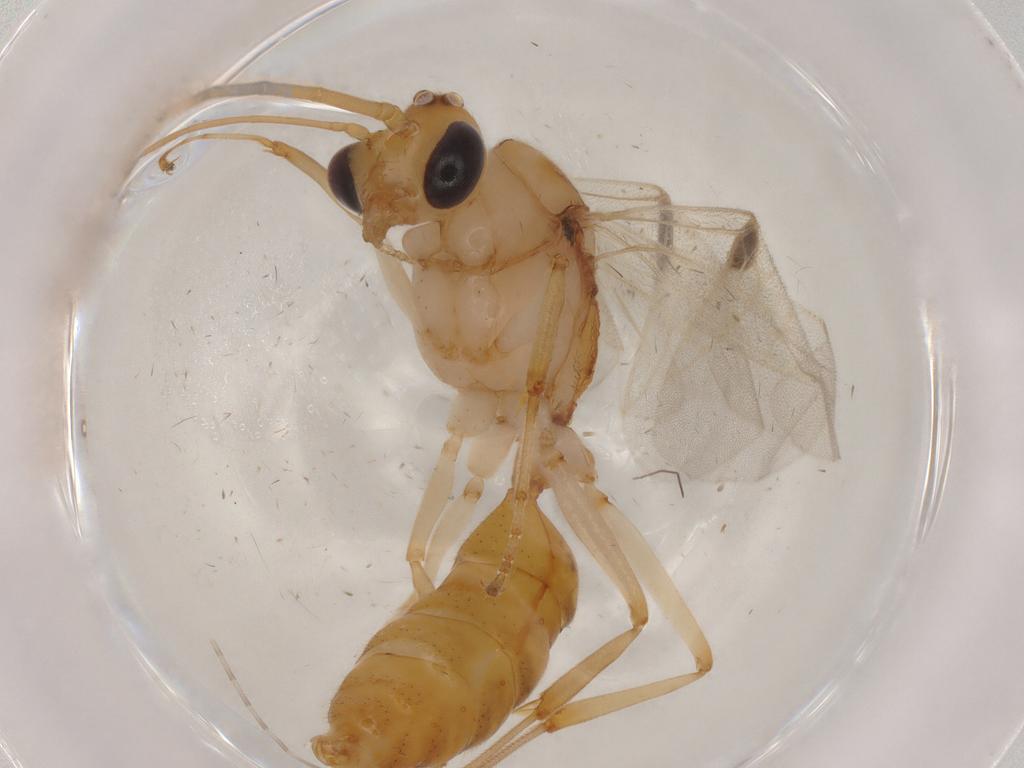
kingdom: Animalia
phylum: Arthropoda
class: Insecta
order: Hymenoptera
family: Formicidae
